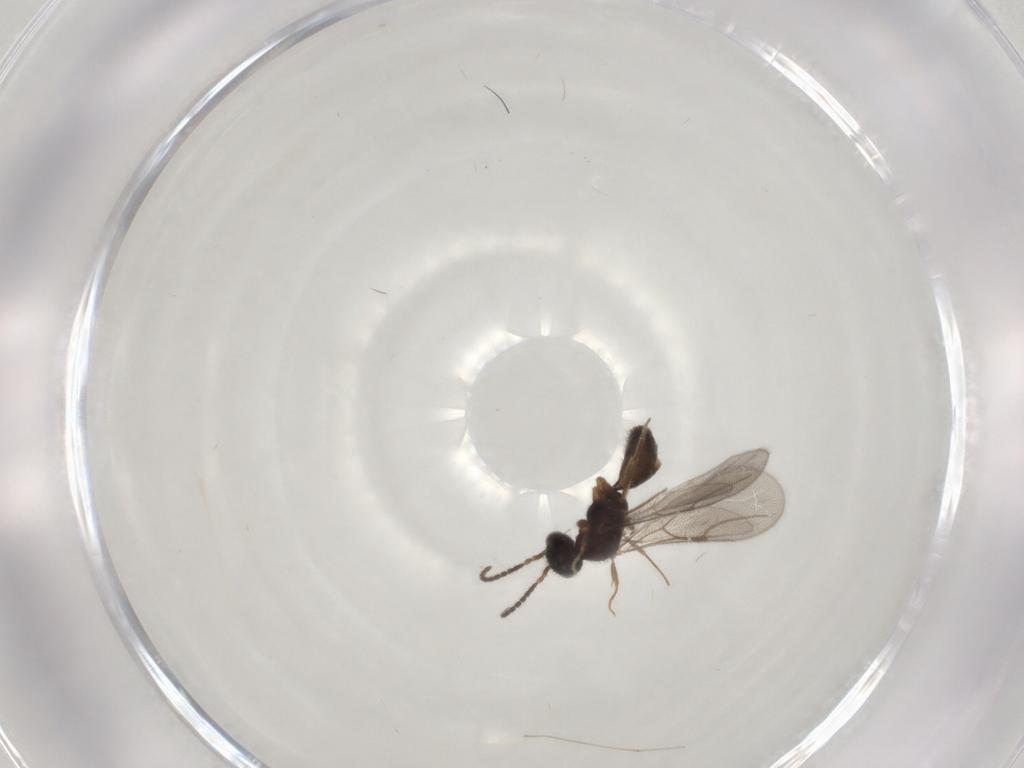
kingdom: Animalia
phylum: Arthropoda
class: Insecta
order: Hymenoptera
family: Bethylidae
